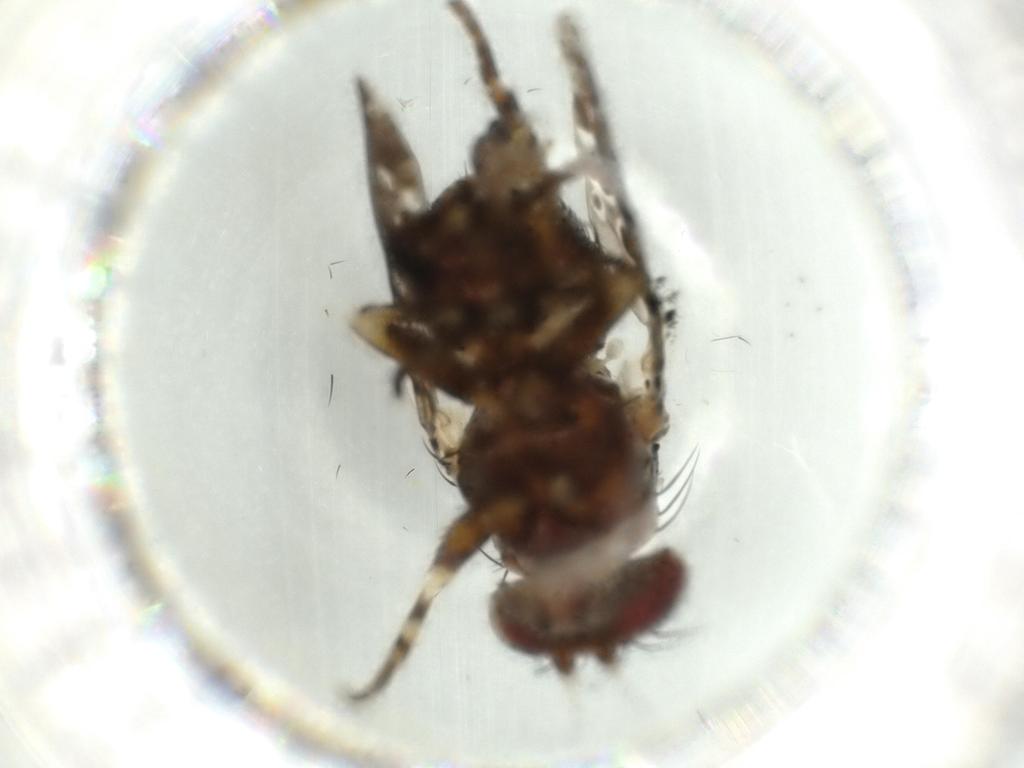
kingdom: Animalia
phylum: Arthropoda
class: Insecta
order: Diptera
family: Odiniidae
